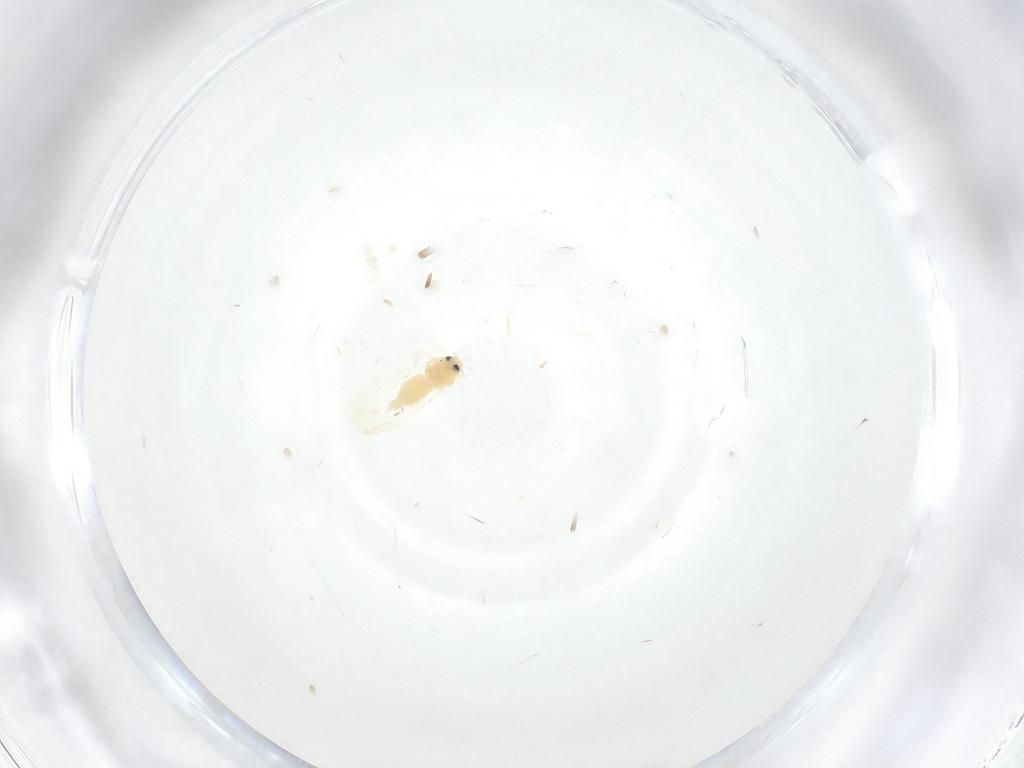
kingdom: Animalia
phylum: Arthropoda
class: Insecta
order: Hemiptera
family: Aleyrodidae
